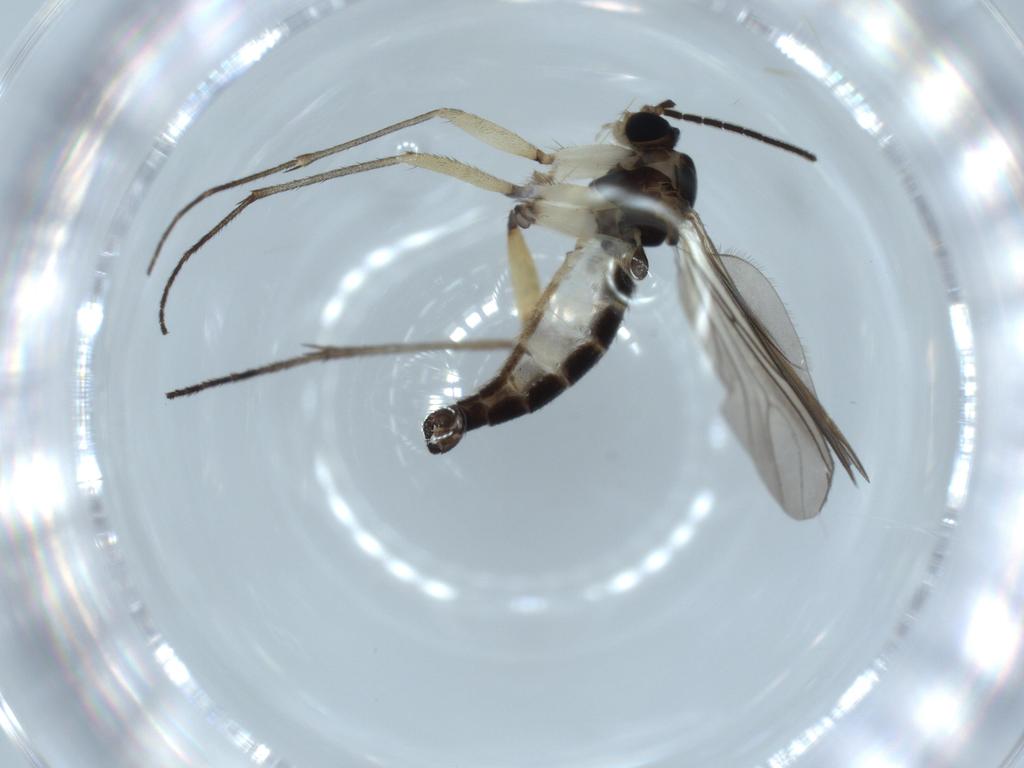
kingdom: Animalia
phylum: Arthropoda
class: Insecta
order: Diptera
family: Sciaridae
